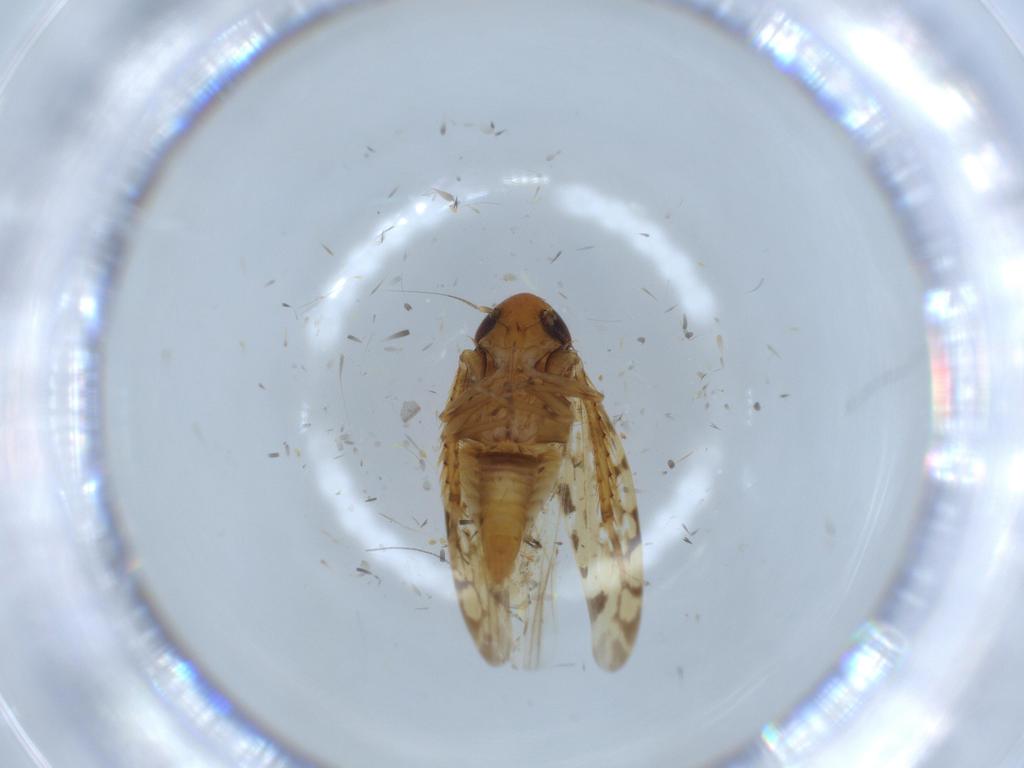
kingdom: Animalia
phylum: Arthropoda
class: Insecta
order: Hemiptera
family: Cicadellidae
